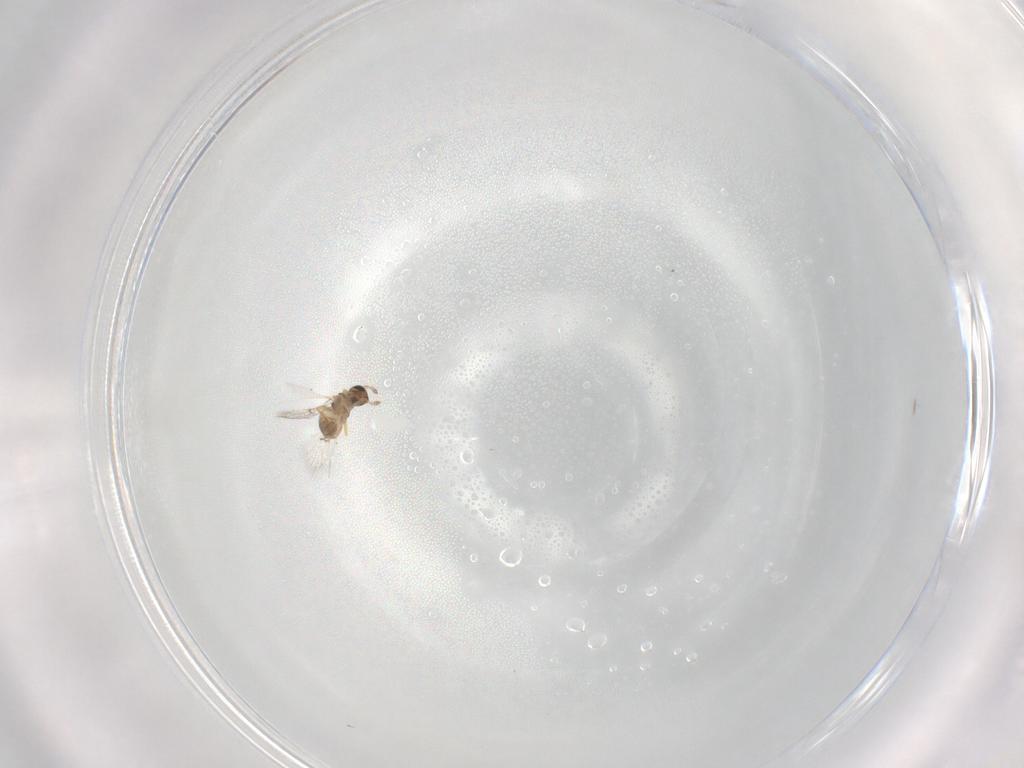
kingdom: Animalia
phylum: Arthropoda
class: Insecta
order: Hymenoptera
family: Trichogrammatidae
